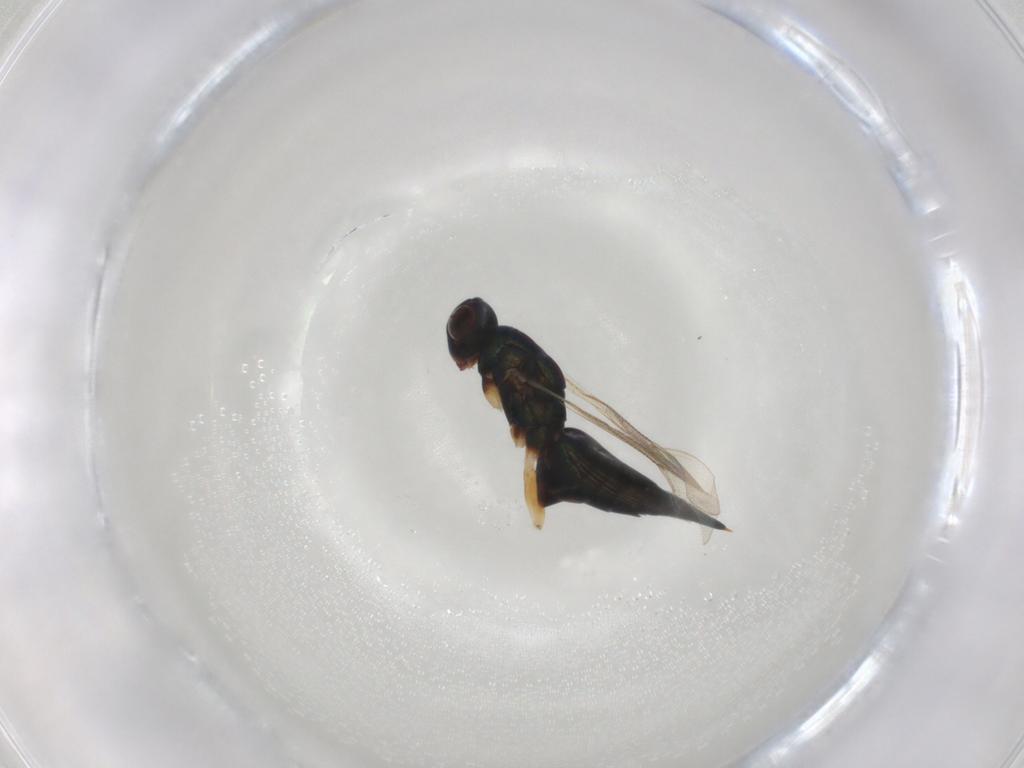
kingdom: Animalia
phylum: Arthropoda
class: Insecta
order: Hymenoptera
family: Eulophidae
